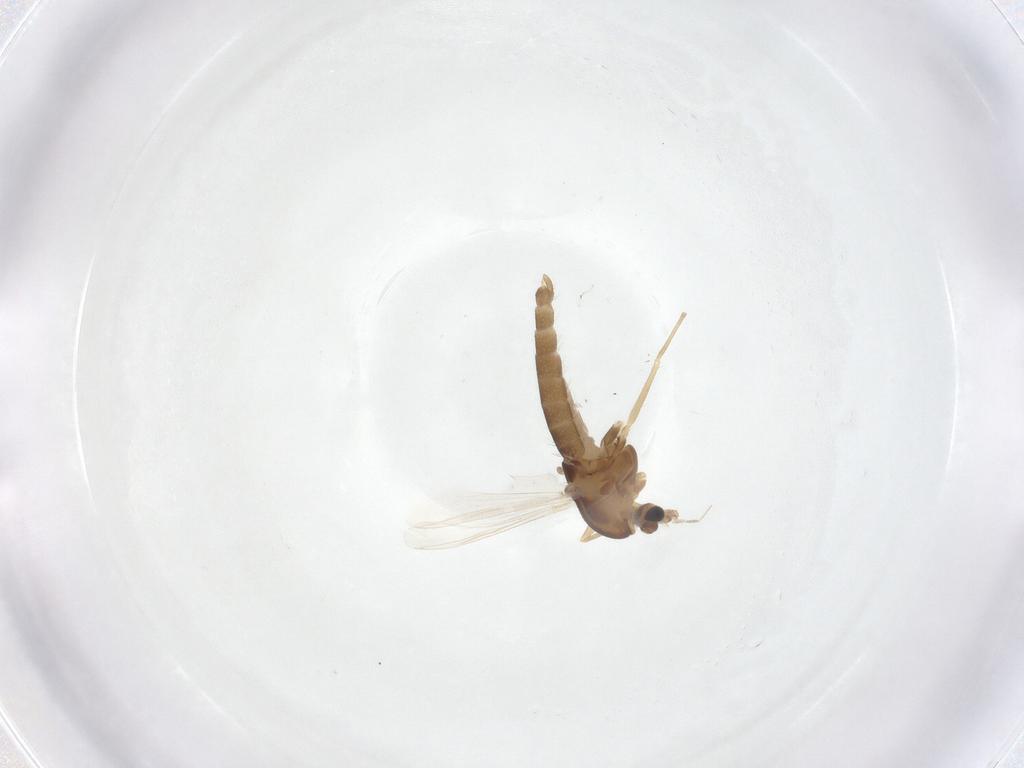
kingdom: Animalia
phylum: Arthropoda
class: Insecta
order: Diptera
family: Chironomidae
